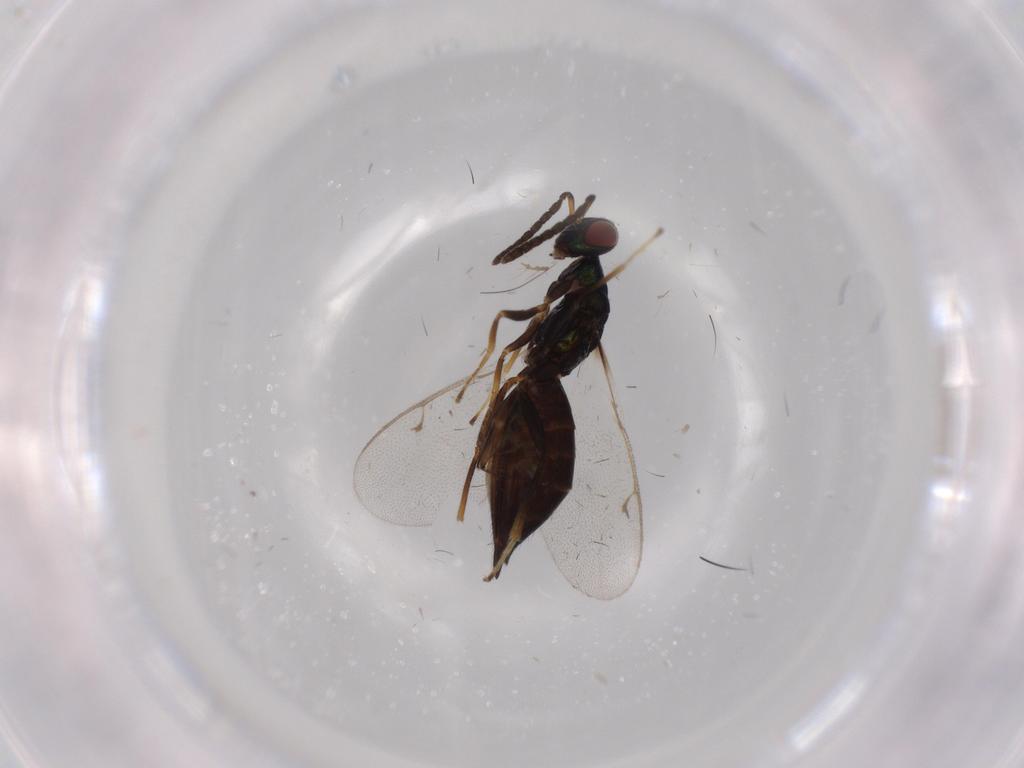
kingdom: Animalia
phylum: Arthropoda
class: Insecta
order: Hymenoptera
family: Pteromalidae
